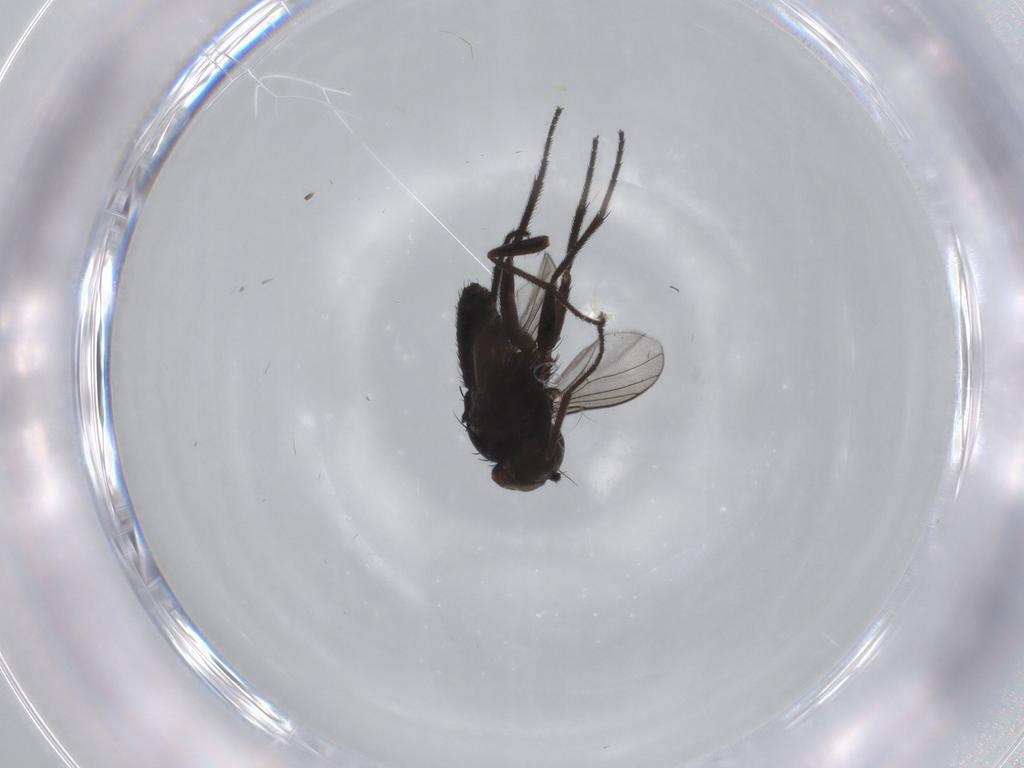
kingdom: Animalia
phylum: Arthropoda
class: Insecta
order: Diptera
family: Dolichopodidae
